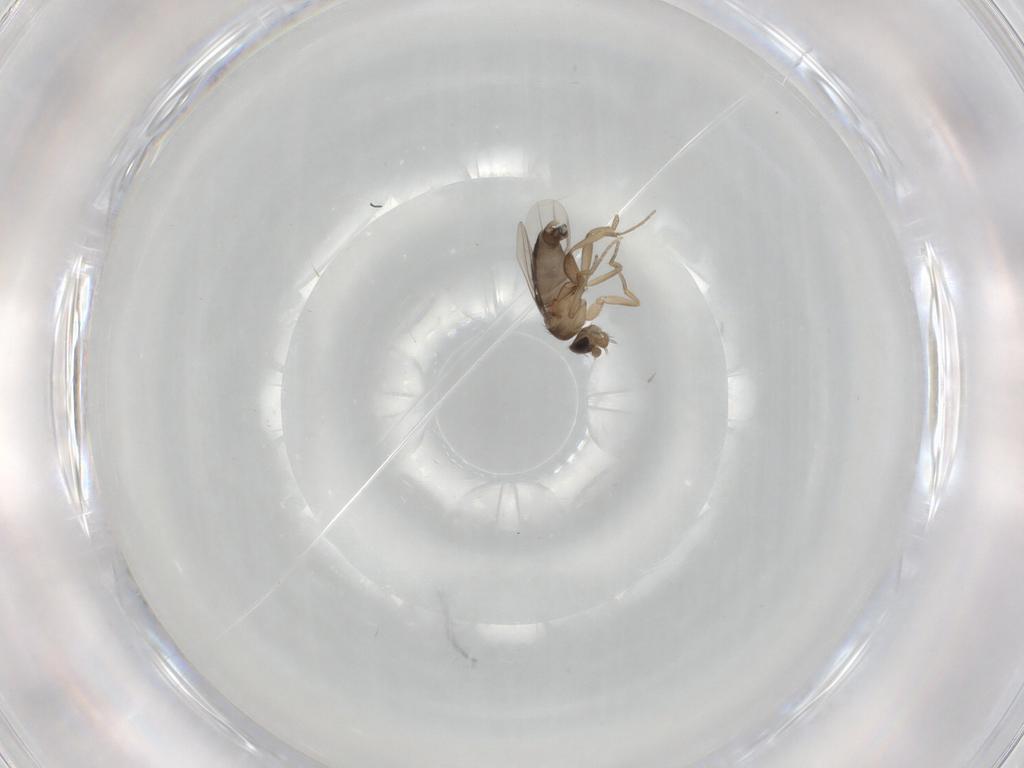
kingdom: Animalia
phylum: Arthropoda
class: Insecta
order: Diptera
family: Phoridae
